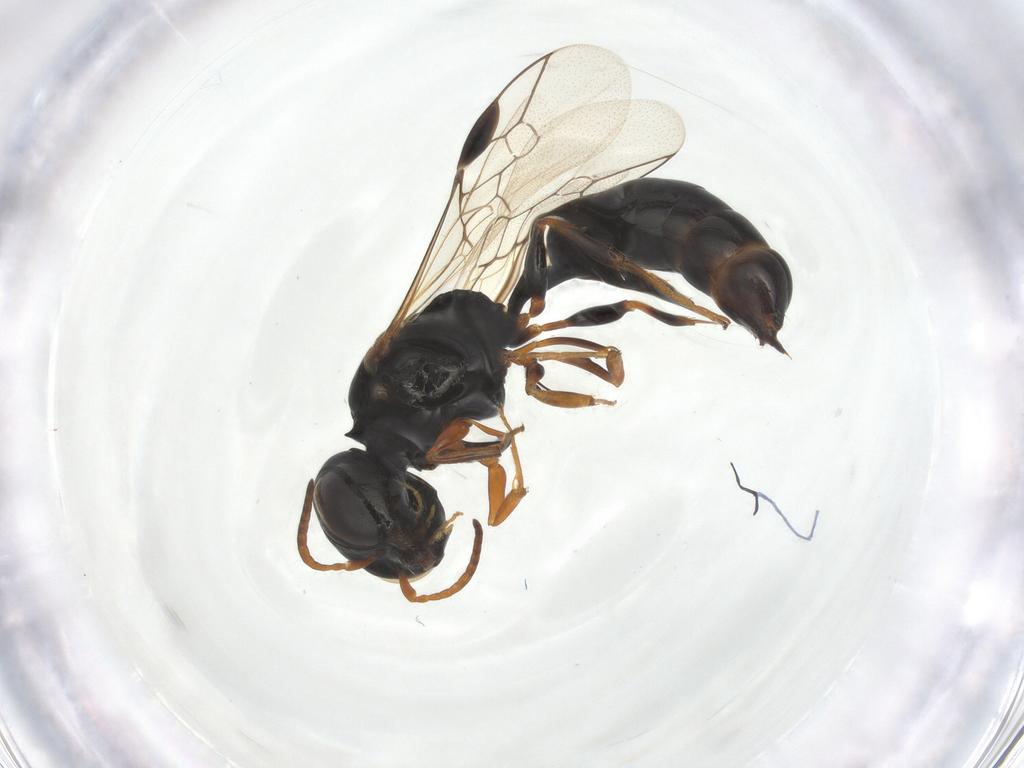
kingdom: Animalia
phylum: Arthropoda
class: Insecta
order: Hymenoptera
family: Crabronidae
